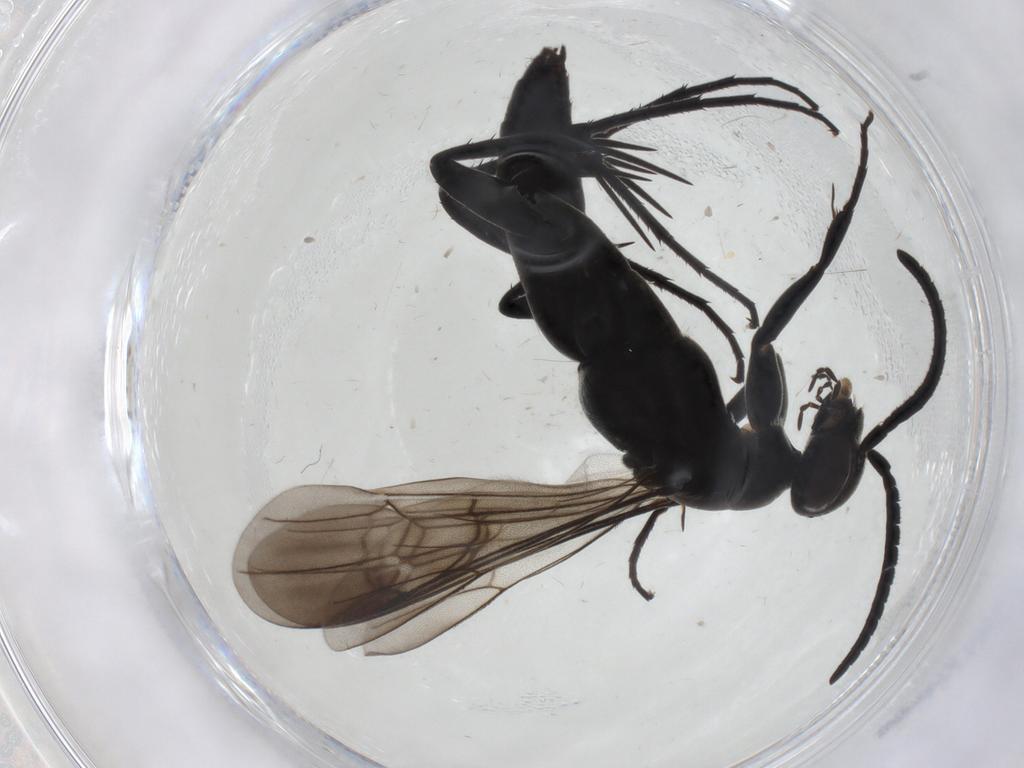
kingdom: Animalia
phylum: Arthropoda
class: Insecta
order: Hymenoptera
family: Pompilidae
